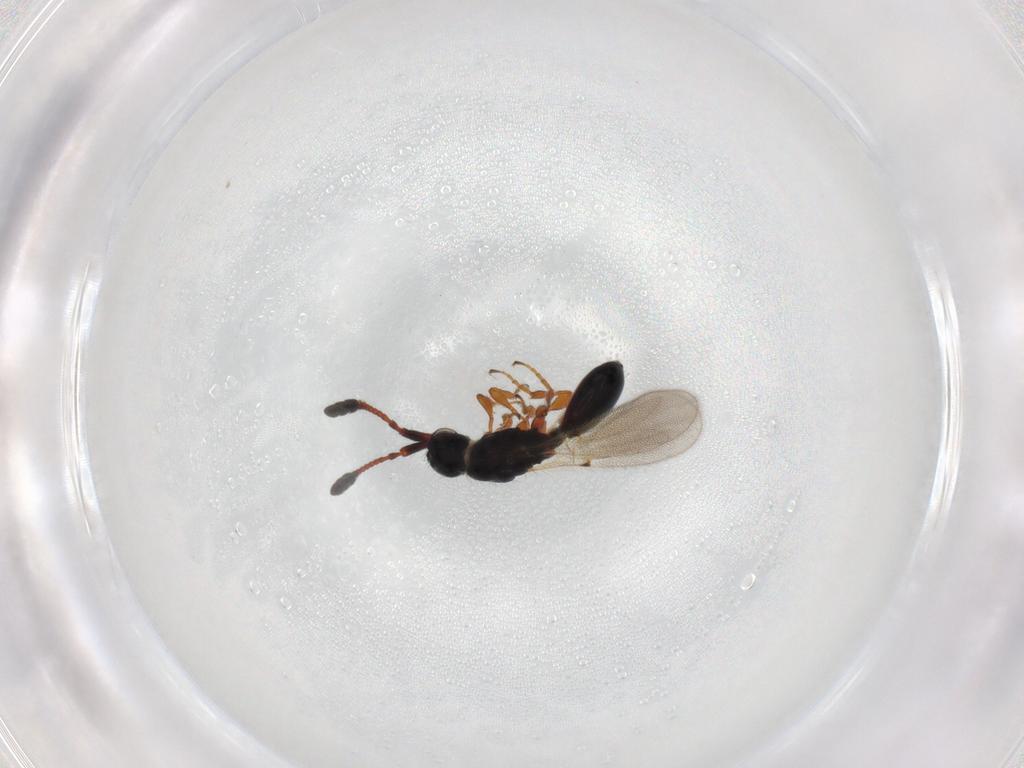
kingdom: Animalia
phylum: Arthropoda
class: Insecta
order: Hymenoptera
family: Diapriidae
